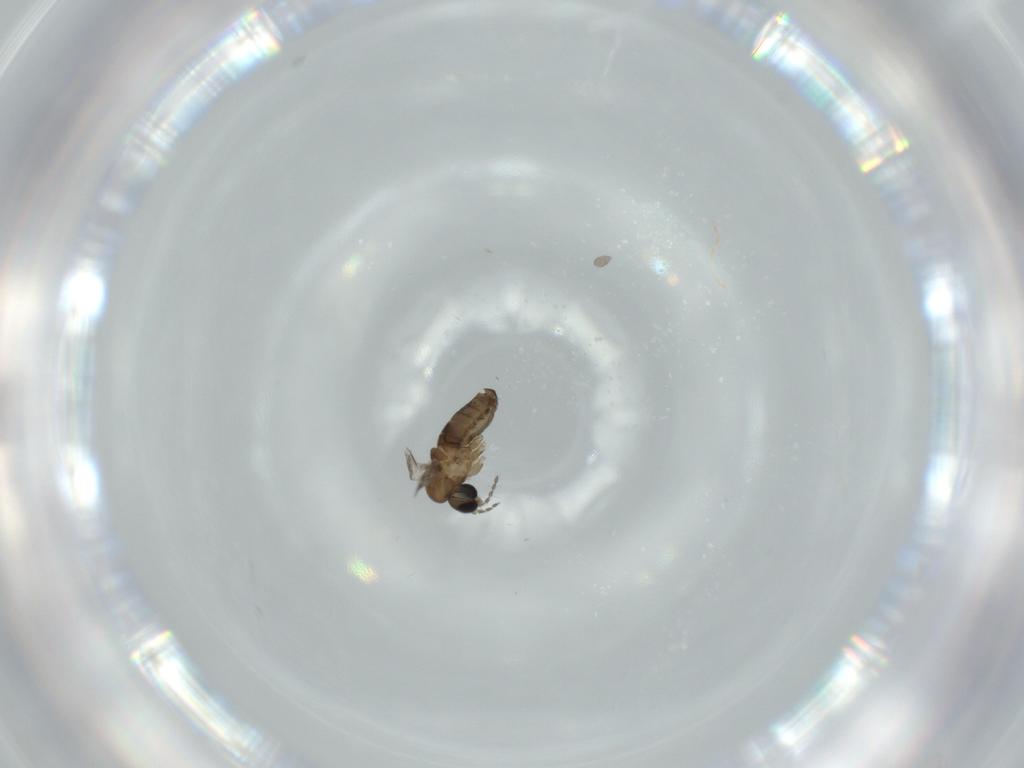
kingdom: Animalia
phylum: Arthropoda
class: Insecta
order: Diptera
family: Psychodidae
